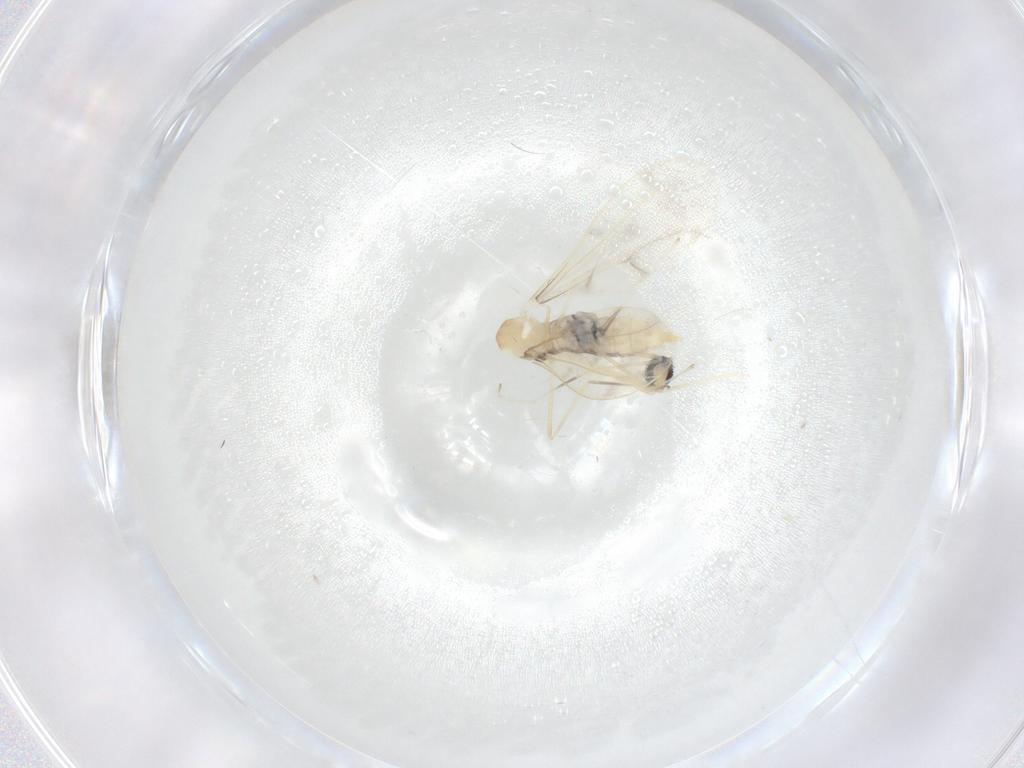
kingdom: Animalia
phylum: Arthropoda
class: Insecta
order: Diptera
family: Cecidomyiidae
